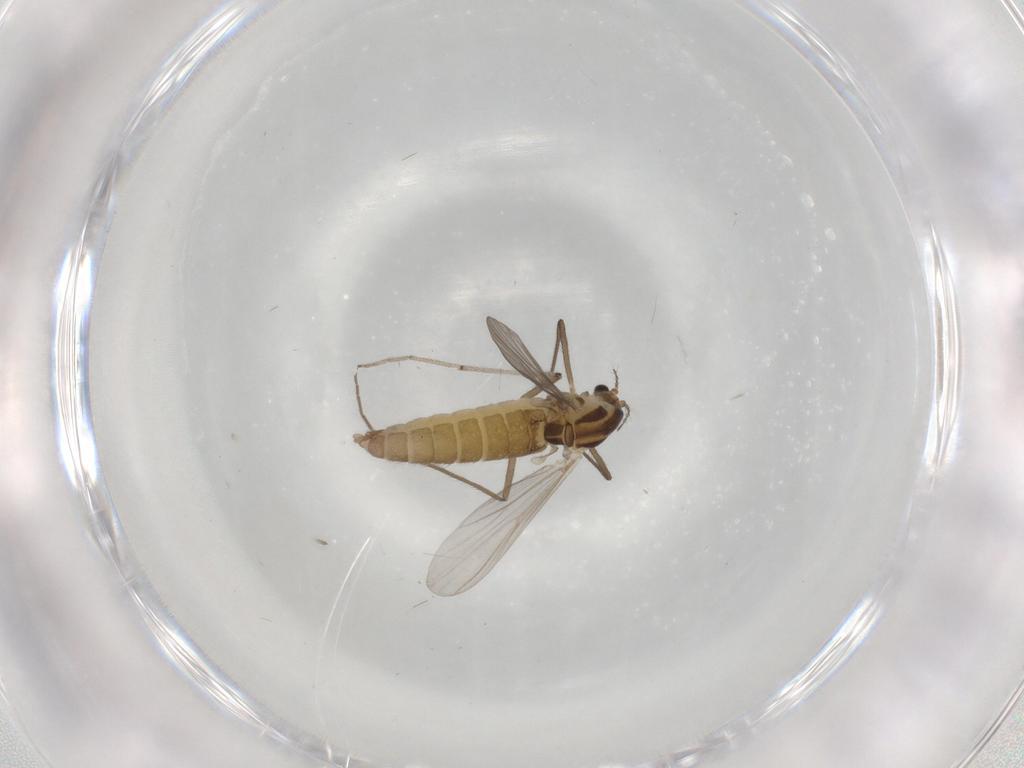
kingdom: Animalia
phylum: Arthropoda
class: Insecta
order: Diptera
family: Chironomidae
